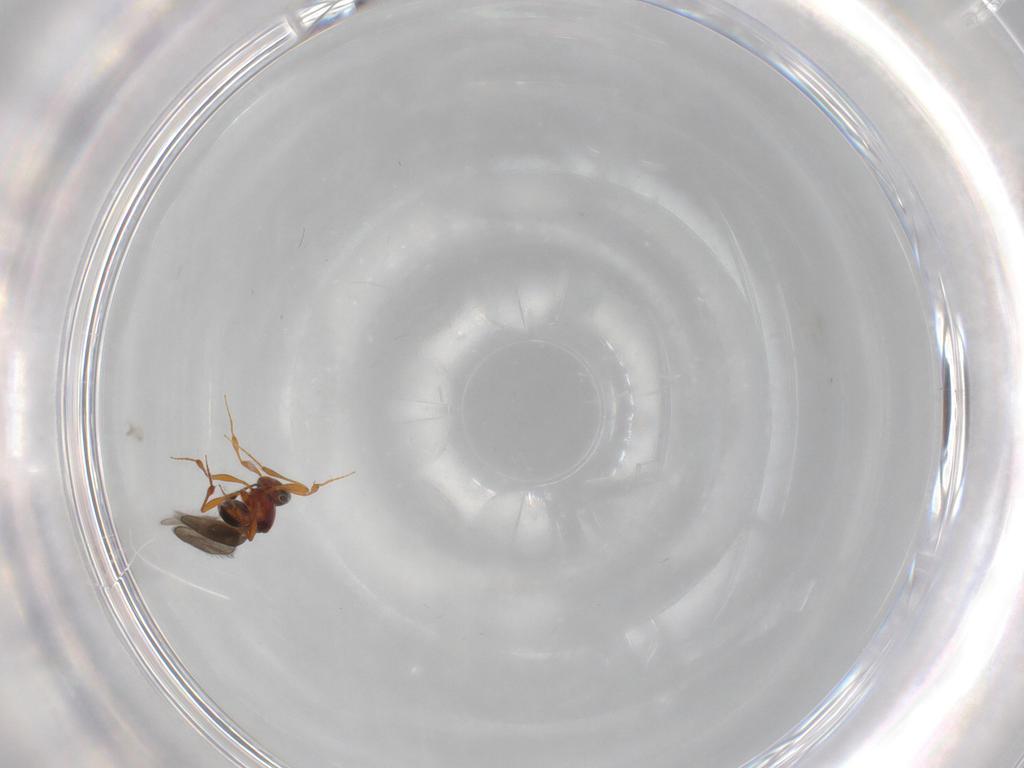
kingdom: Animalia
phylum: Arthropoda
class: Insecta
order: Hymenoptera
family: Platygastridae
